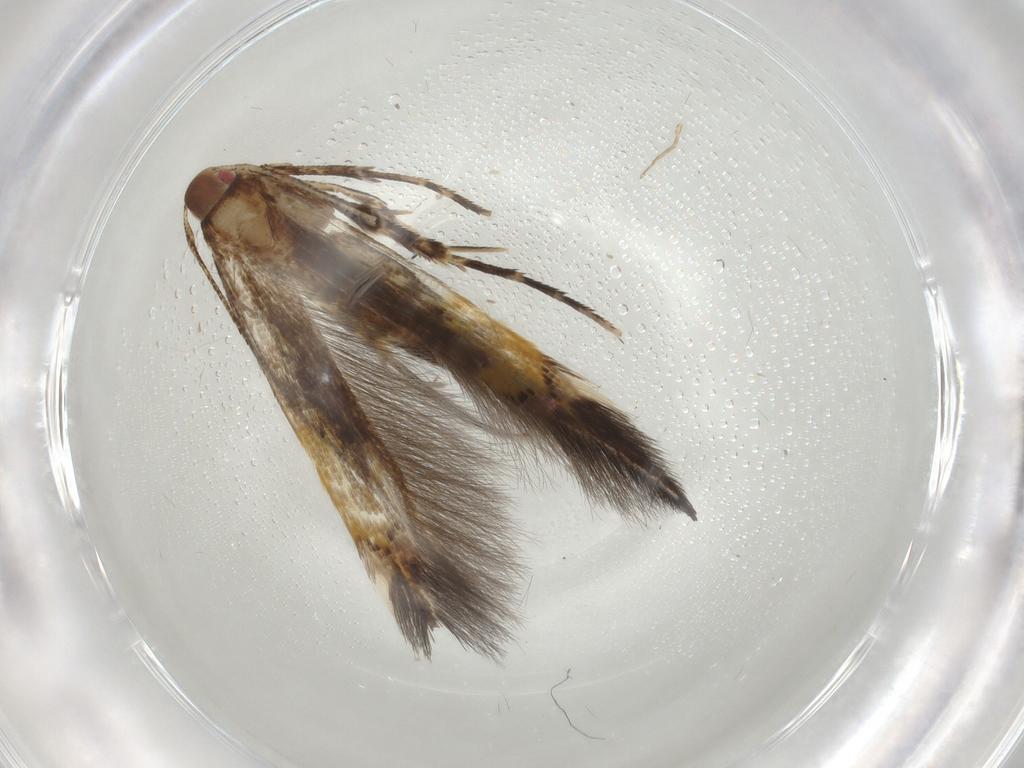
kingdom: Animalia
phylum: Arthropoda
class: Insecta
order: Lepidoptera
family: Cosmopterigidae
